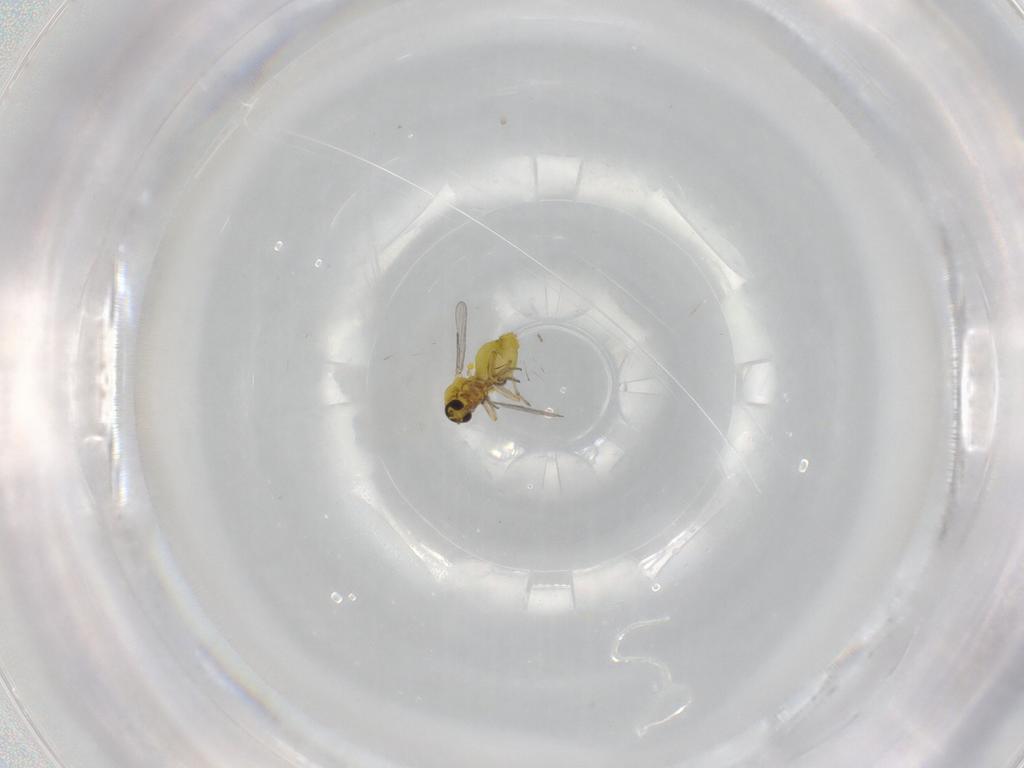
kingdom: Animalia
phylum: Arthropoda
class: Insecta
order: Diptera
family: Ceratopogonidae
